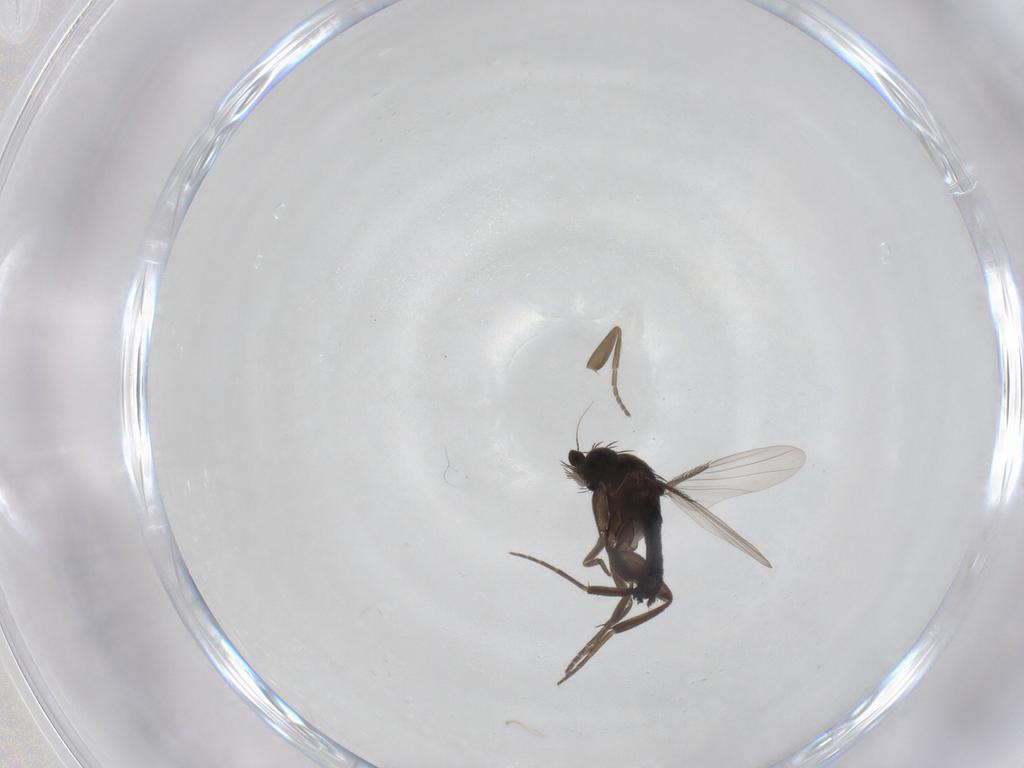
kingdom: Animalia
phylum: Arthropoda
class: Insecta
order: Diptera
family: Phoridae
